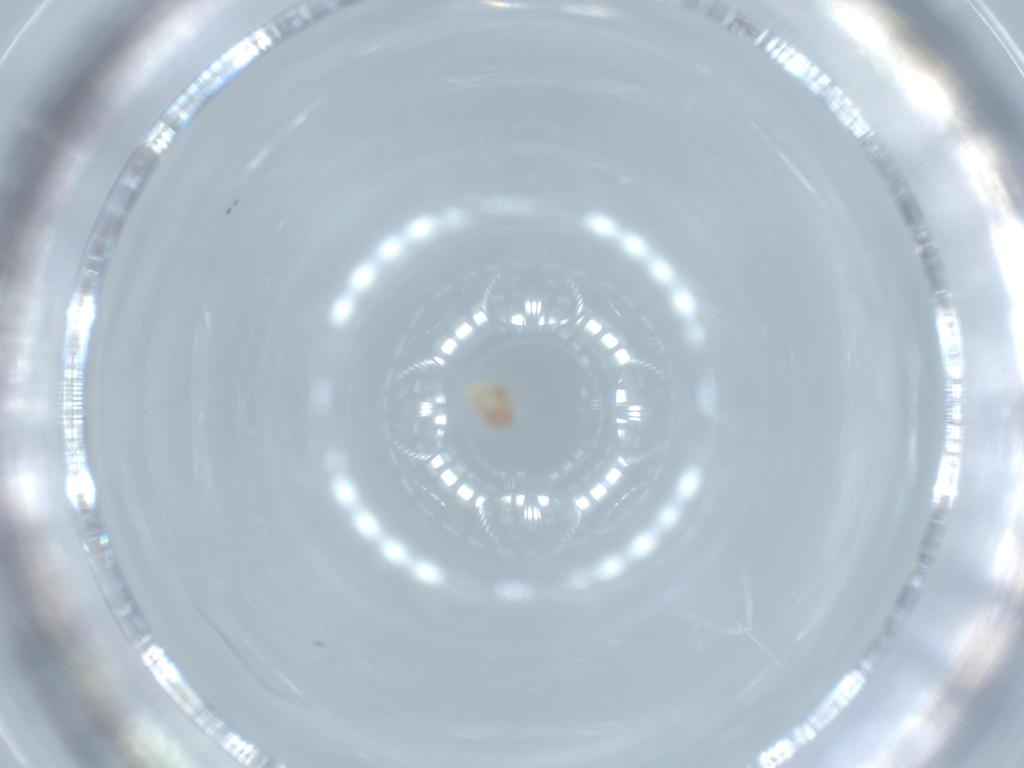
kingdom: Animalia
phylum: Arthropoda
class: Insecta
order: Psocodea
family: Liposcelididae
